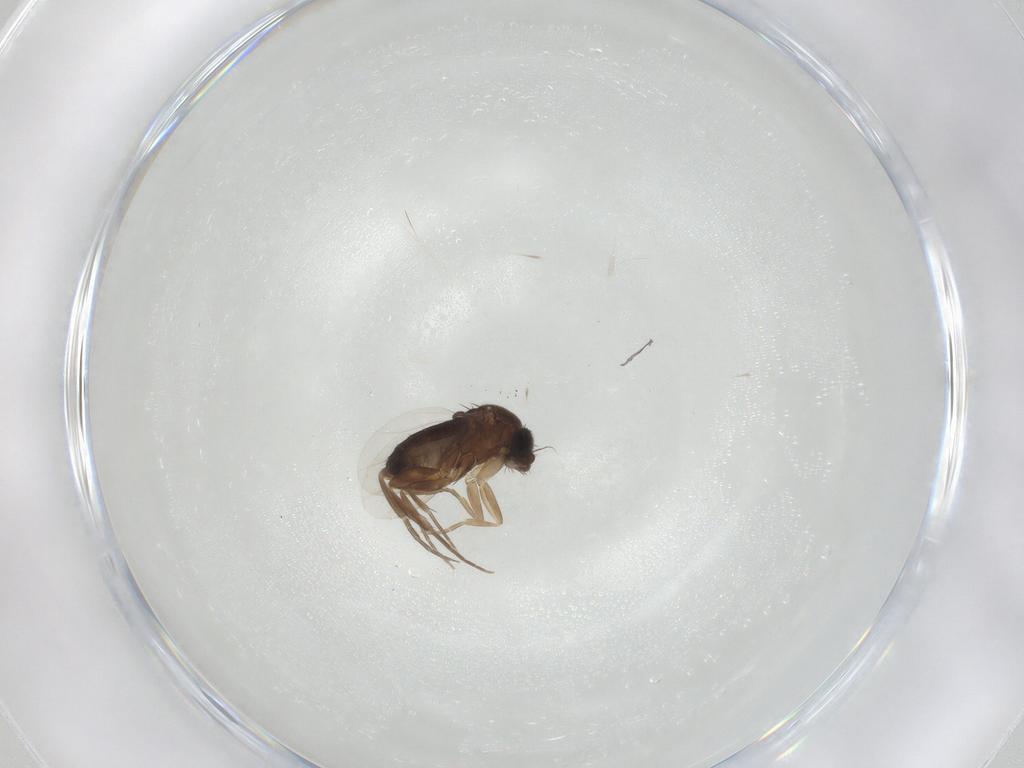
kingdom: Animalia
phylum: Arthropoda
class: Insecta
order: Diptera
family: Phoridae
